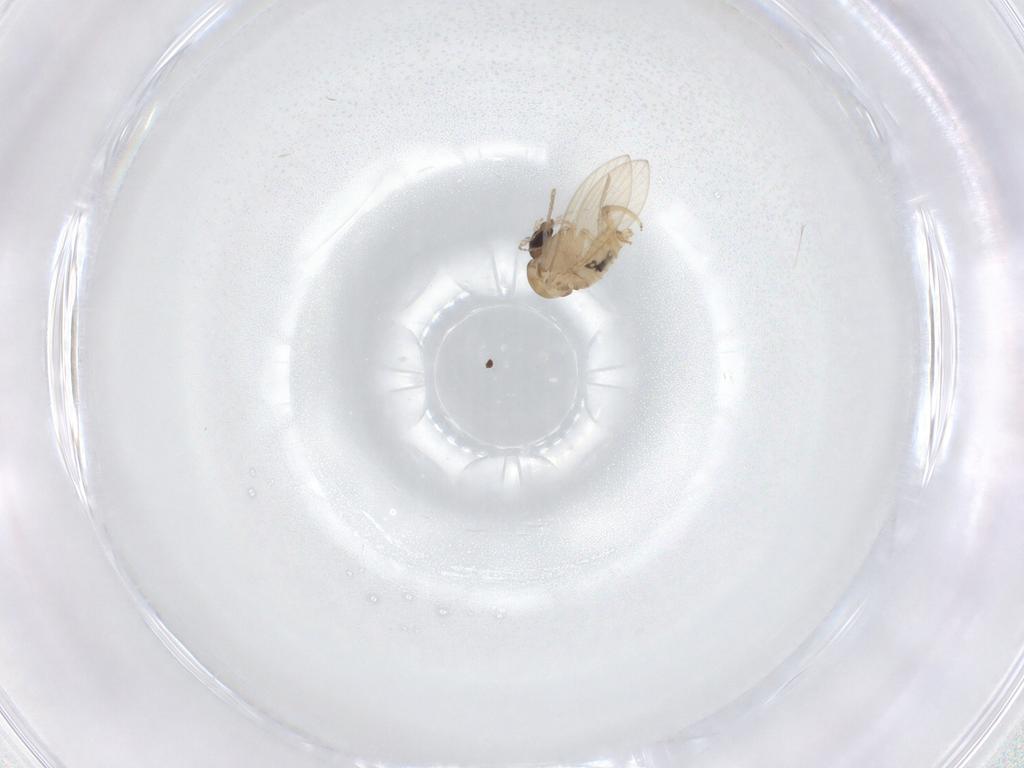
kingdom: Animalia
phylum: Arthropoda
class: Insecta
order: Diptera
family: Psychodidae
